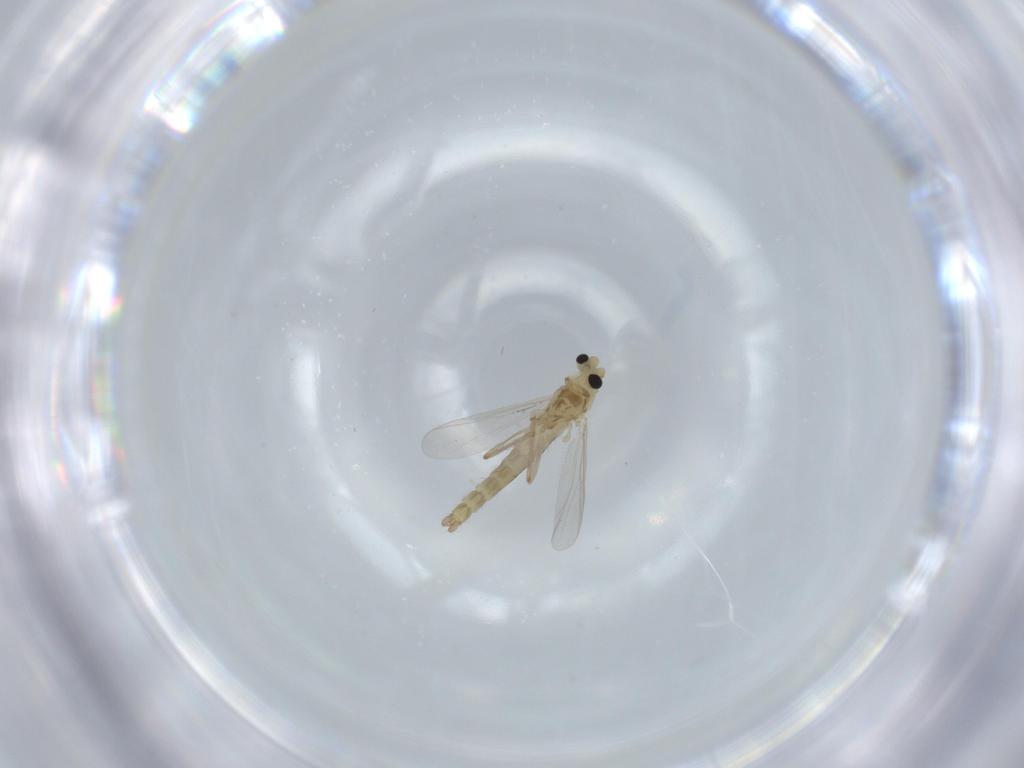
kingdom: Animalia
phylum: Arthropoda
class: Insecta
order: Diptera
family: Chironomidae
